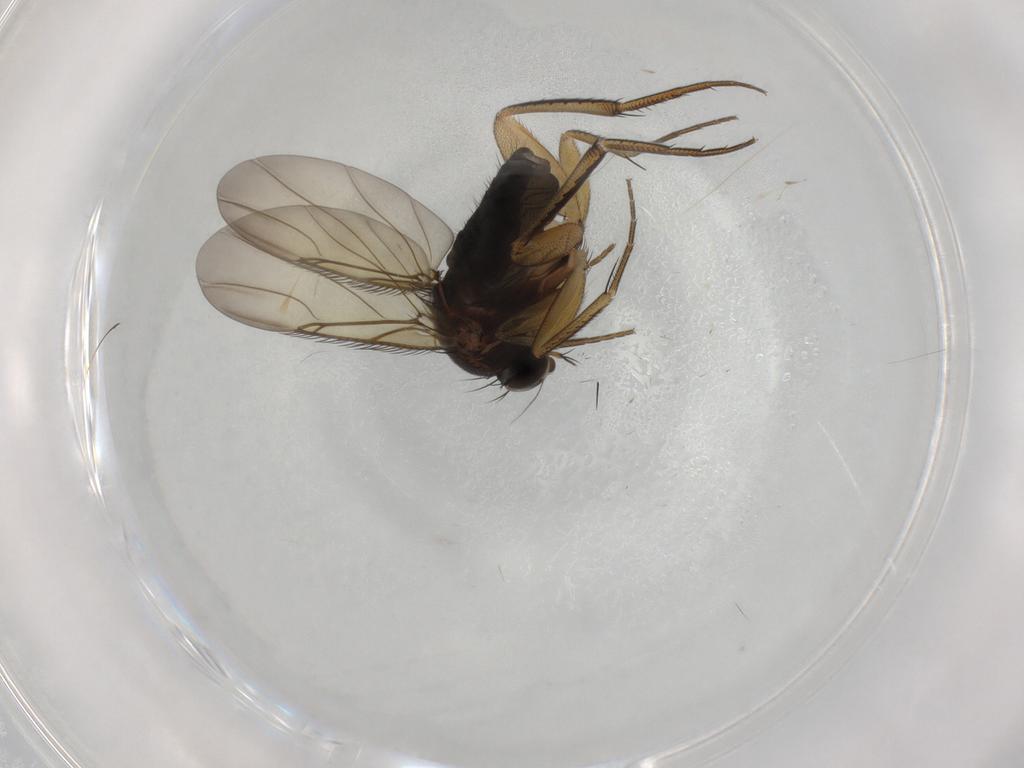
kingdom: Animalia
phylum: Arthropoda
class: Insecta
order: Diptera
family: Phoridae
